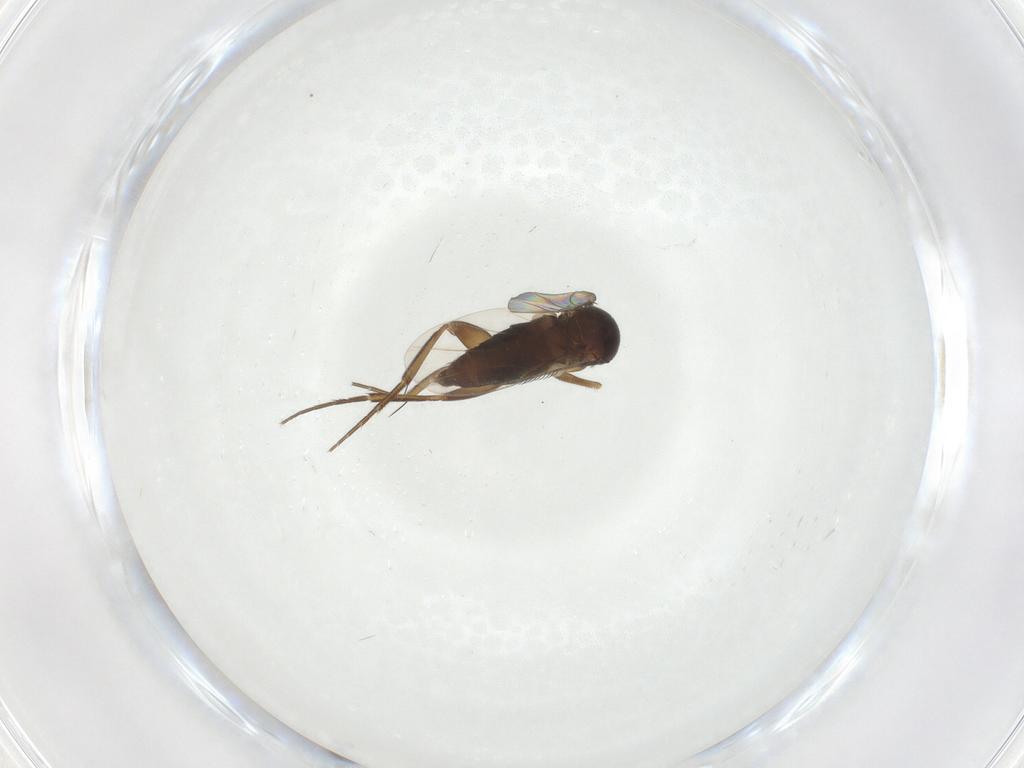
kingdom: Animalia
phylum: Arthropoda
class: Insecta
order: Diptera
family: Phoridae
